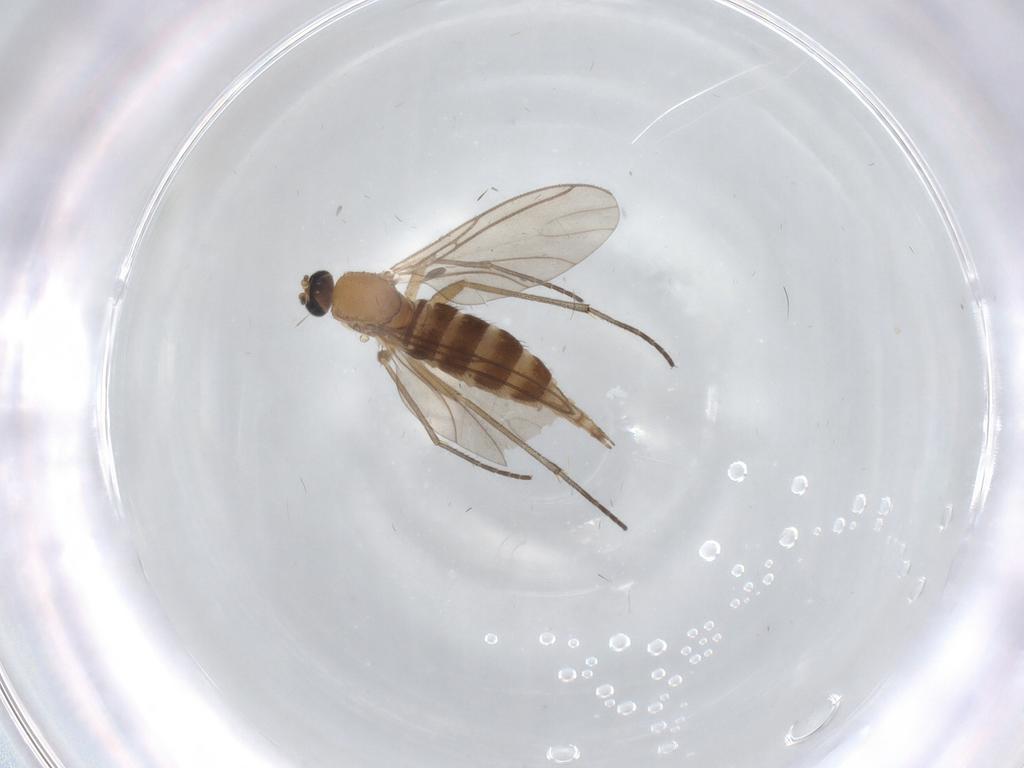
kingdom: Animalia
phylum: Arthropoda
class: Insecta
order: Diptera
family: Sciaridae
